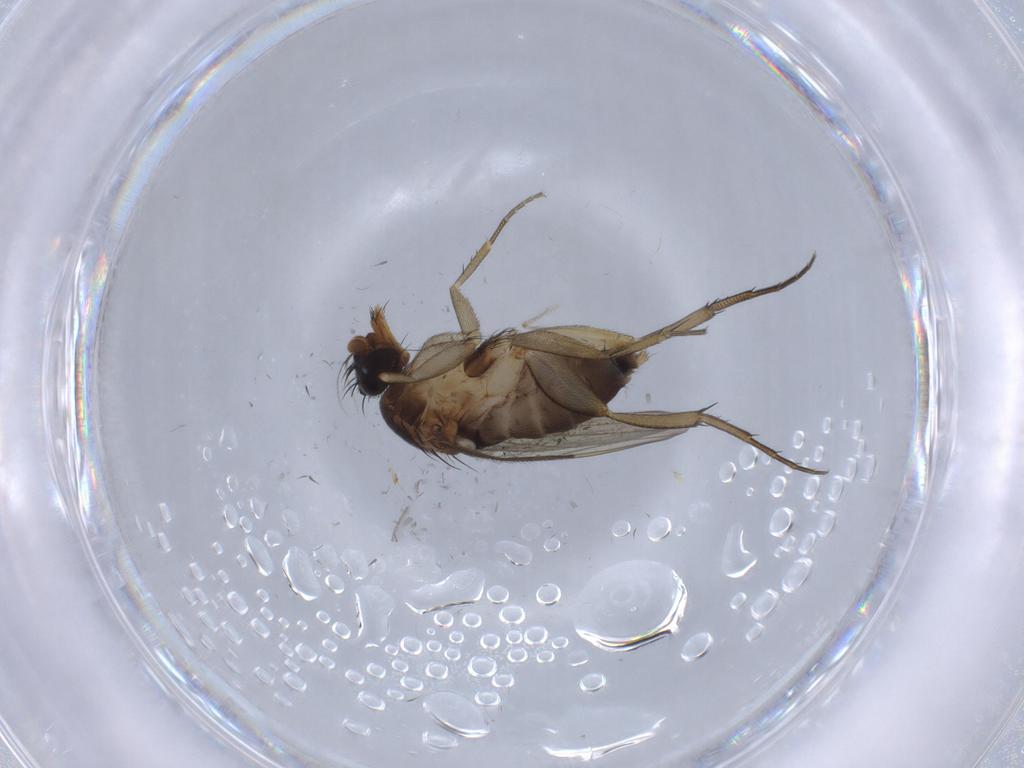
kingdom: Animalia
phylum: Arthropoda
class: Insecta
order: Diptera
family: Phoridae
